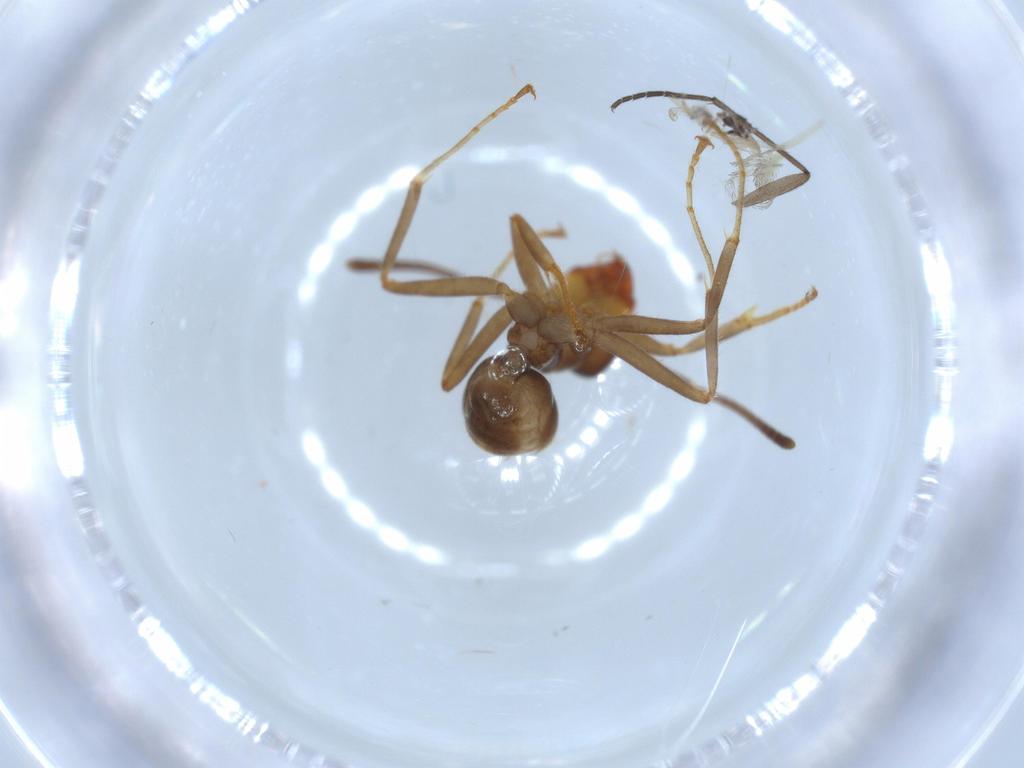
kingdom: Animalia
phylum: Arthropoda
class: Insecta
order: Hymenoptera
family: Formicidae
